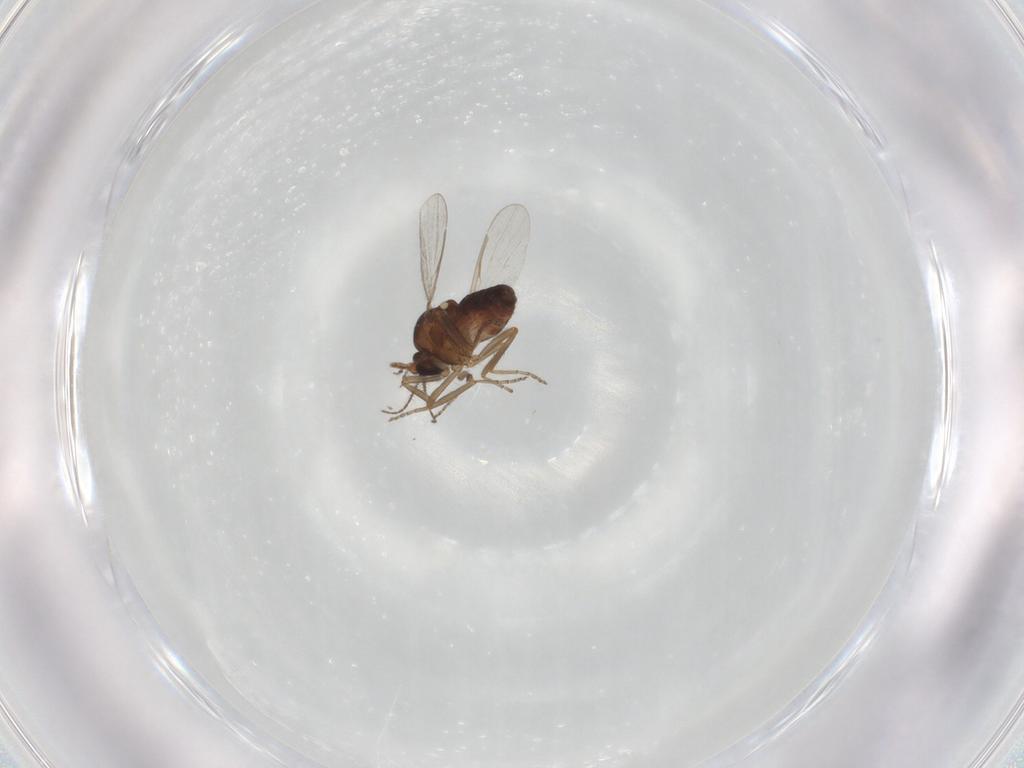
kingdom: Animalia
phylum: Arthropoda
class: Insecta
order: Diptera
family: Ceratopogonidae
